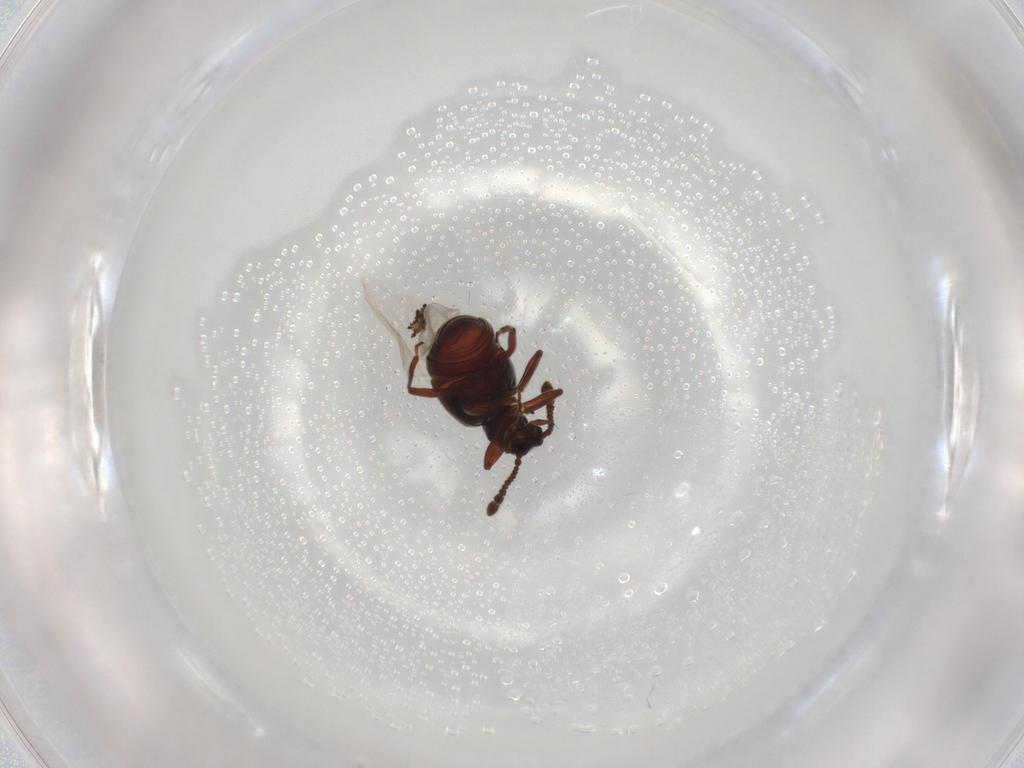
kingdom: Animalia
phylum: Arthropoda
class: Insecta
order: Coleoptera
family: Staphylinidae
